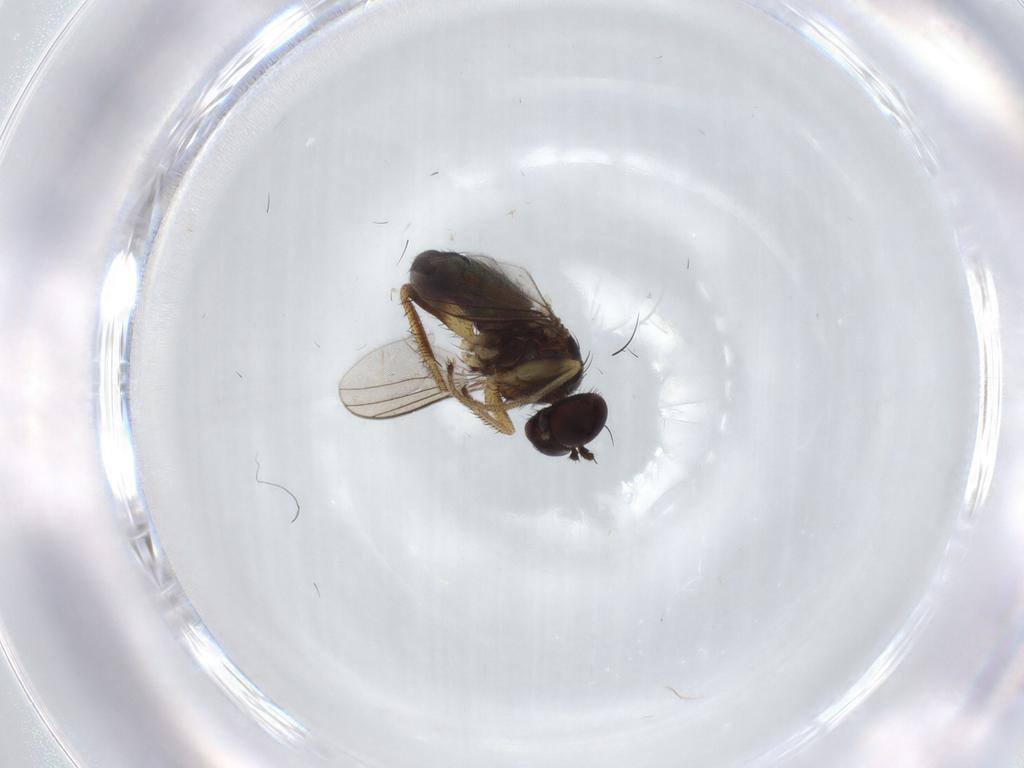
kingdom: Animalia
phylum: Arthropoda
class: Insecta
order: Diptera
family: Dolichopodidae
